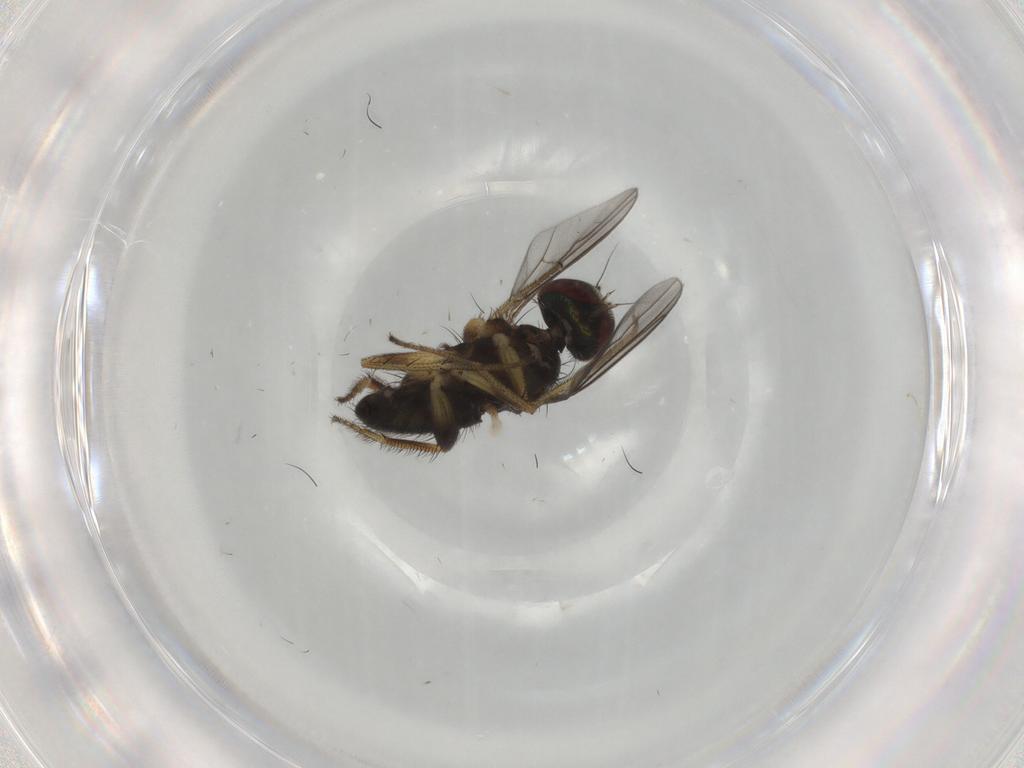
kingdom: Animalia
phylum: Arthropoda
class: Insecta
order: Diptera
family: Dolichopodidae
